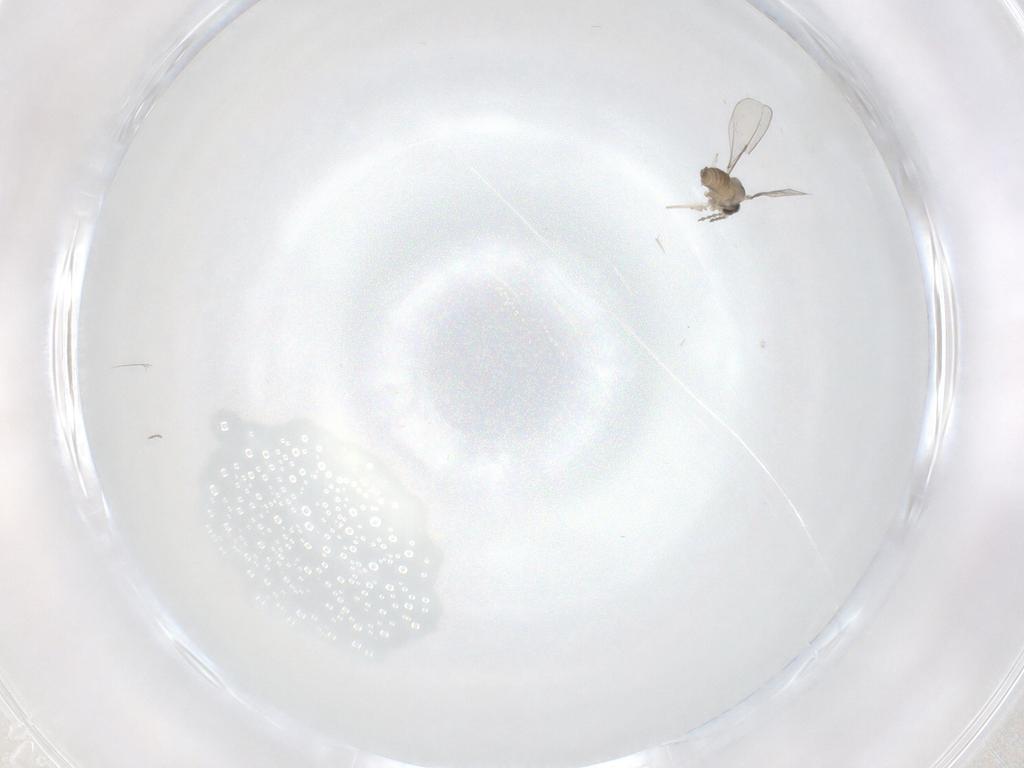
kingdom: Animalia
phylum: Arthropoda
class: Insecta
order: Diptera
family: Cecidomyiidae
